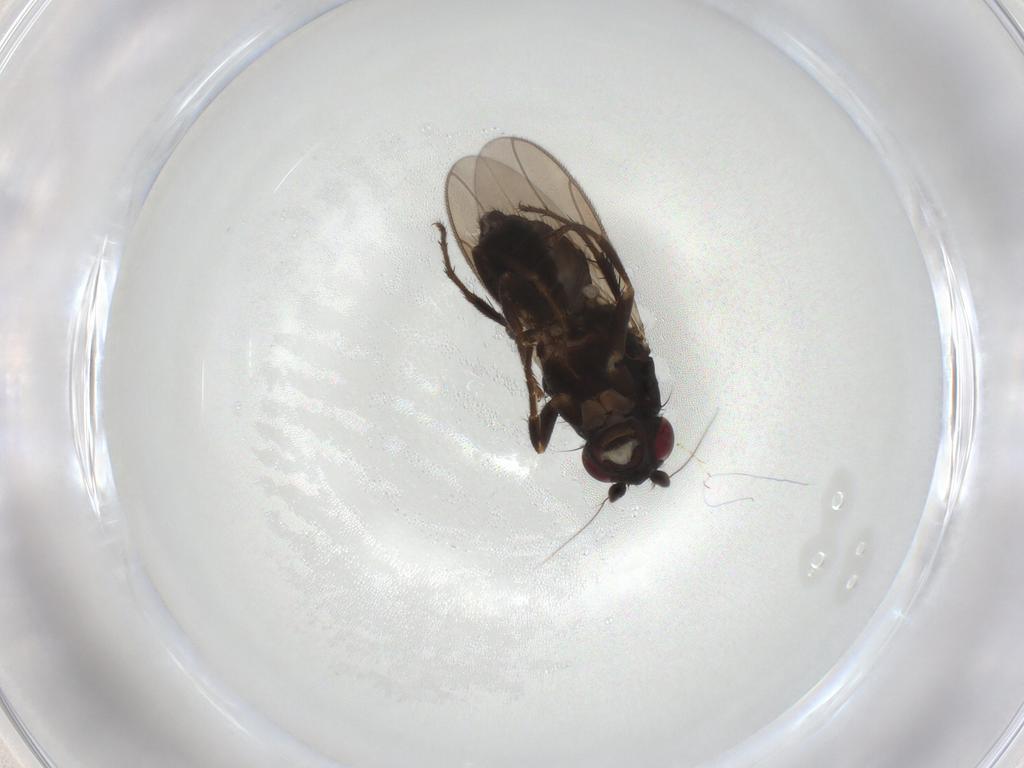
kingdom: Animalia
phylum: Arthropoda
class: Insecta
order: Diptera
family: Sphaeroceridae
